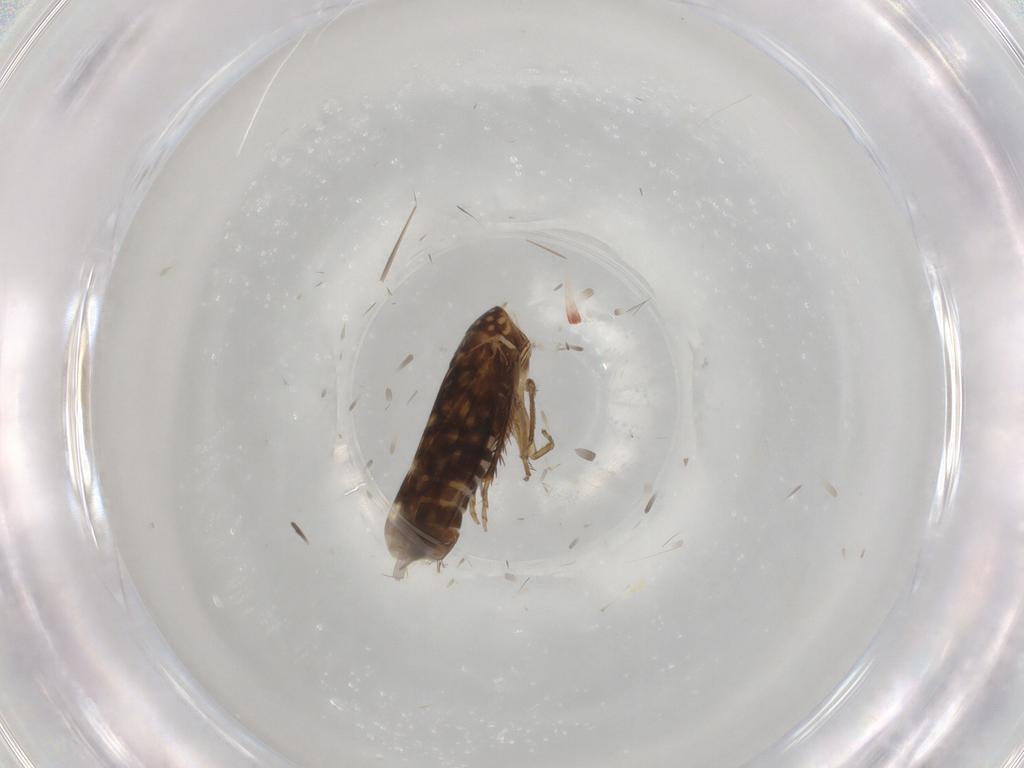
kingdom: Animalia
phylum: Arthropoda
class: Insecta
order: Hemiptera
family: Cicadellidae
